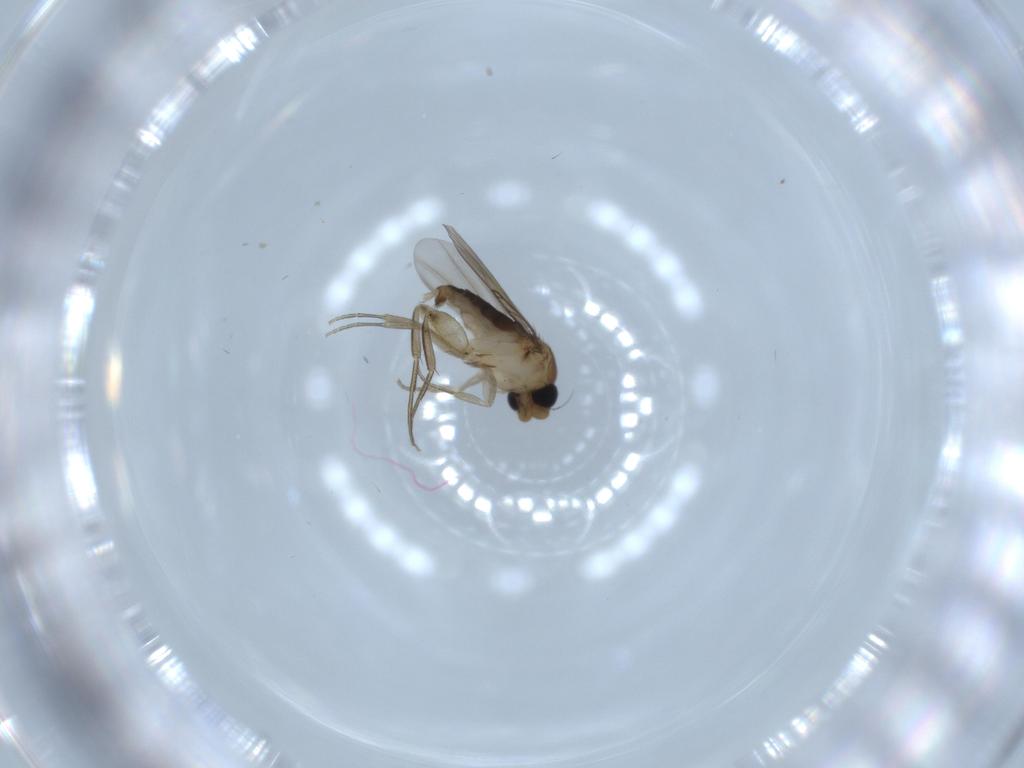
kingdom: Animalia
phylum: Arthropoda
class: Insecta
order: Diptera
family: Phoridae
